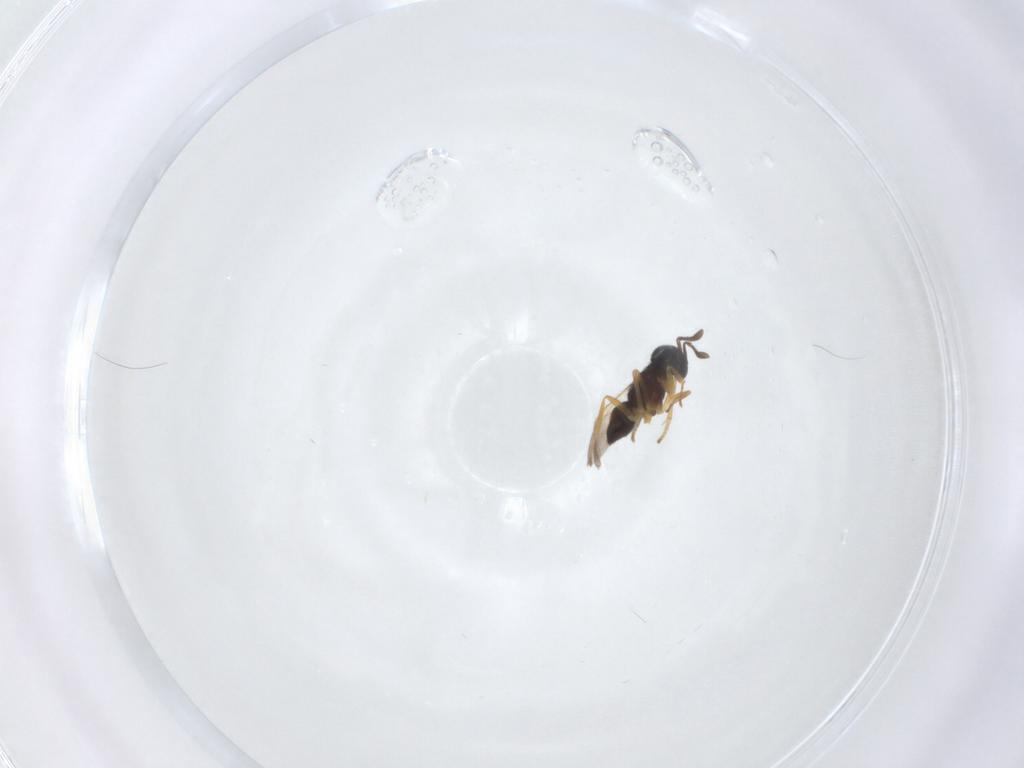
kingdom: Animalia
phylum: Arthropoda
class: Insecta
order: Hymenoptera
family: Encyrtidae
